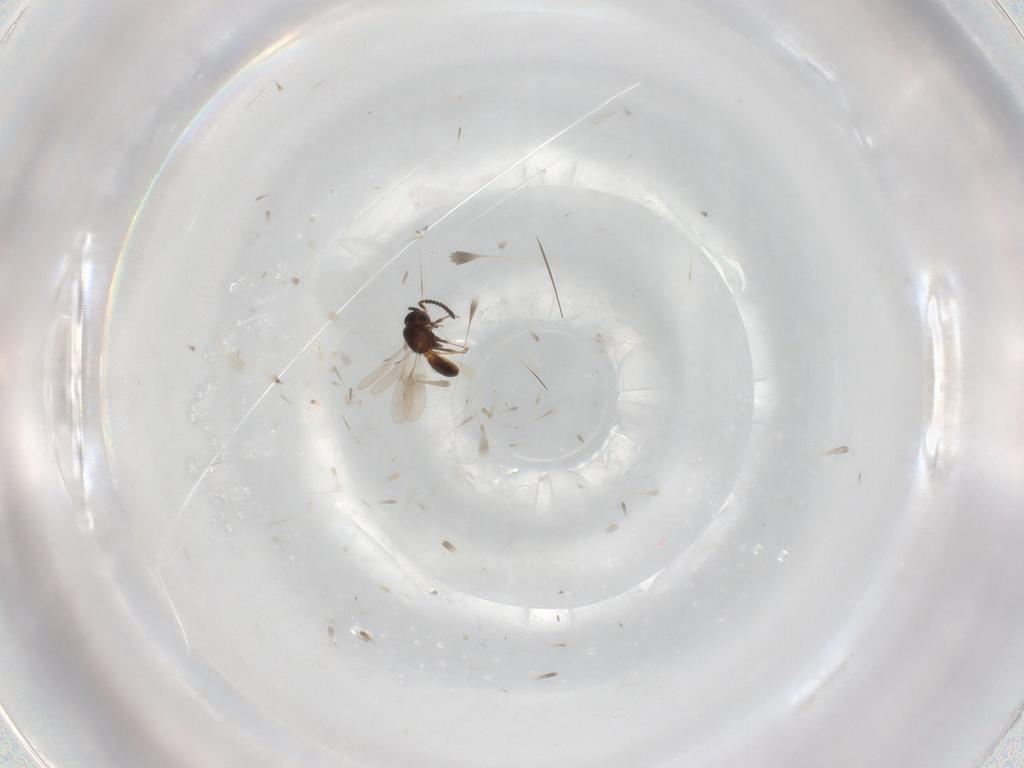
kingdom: Animalia
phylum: Arthropoda
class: Insecta
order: Hymenoptera
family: Scelionidae
